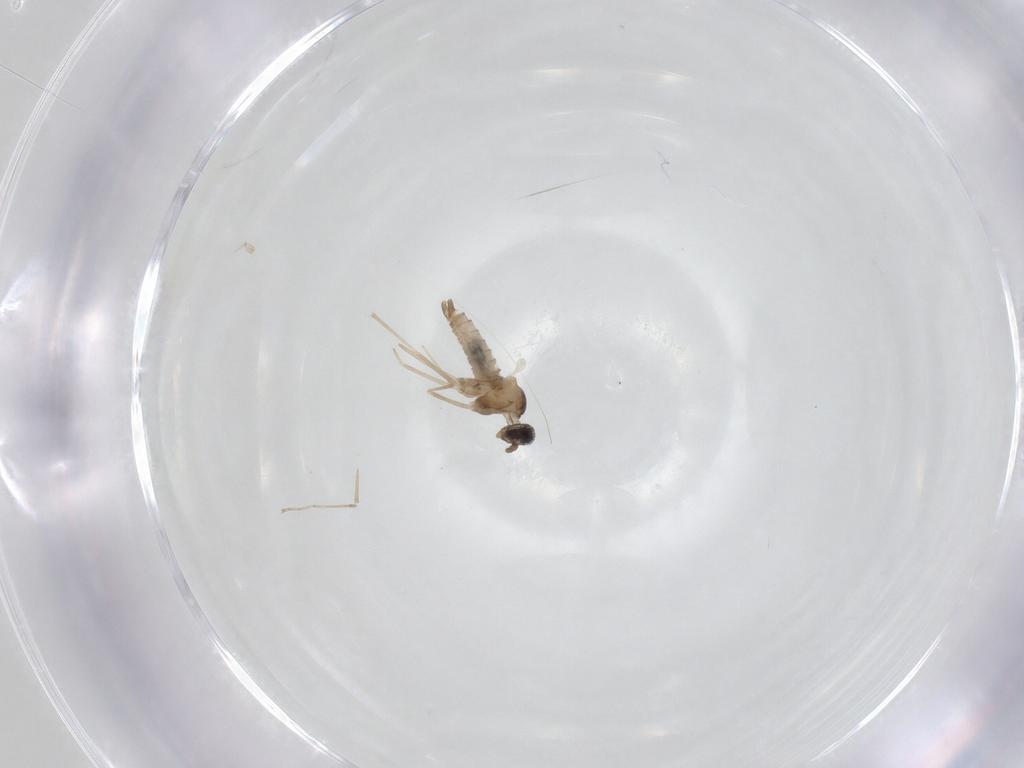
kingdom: Animalia
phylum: Arthropoda
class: Insecta
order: Diptera
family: Cecidomyiidae
